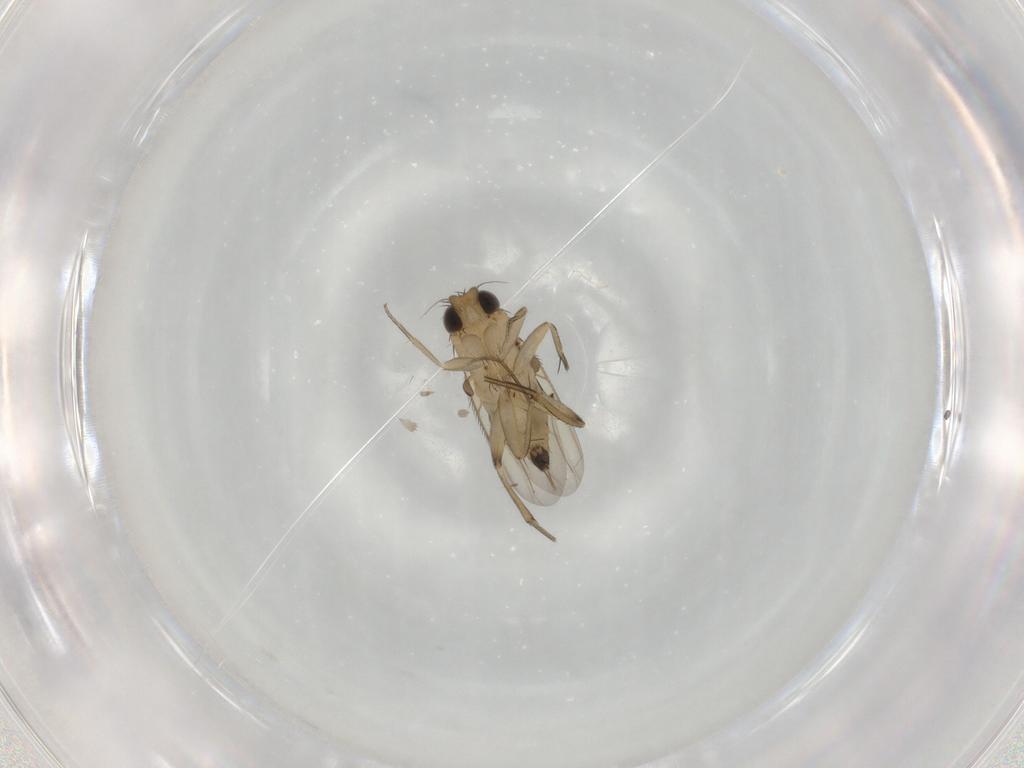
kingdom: Animalia
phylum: Arthropoda
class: Insecta
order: Diptera
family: Phoridae
